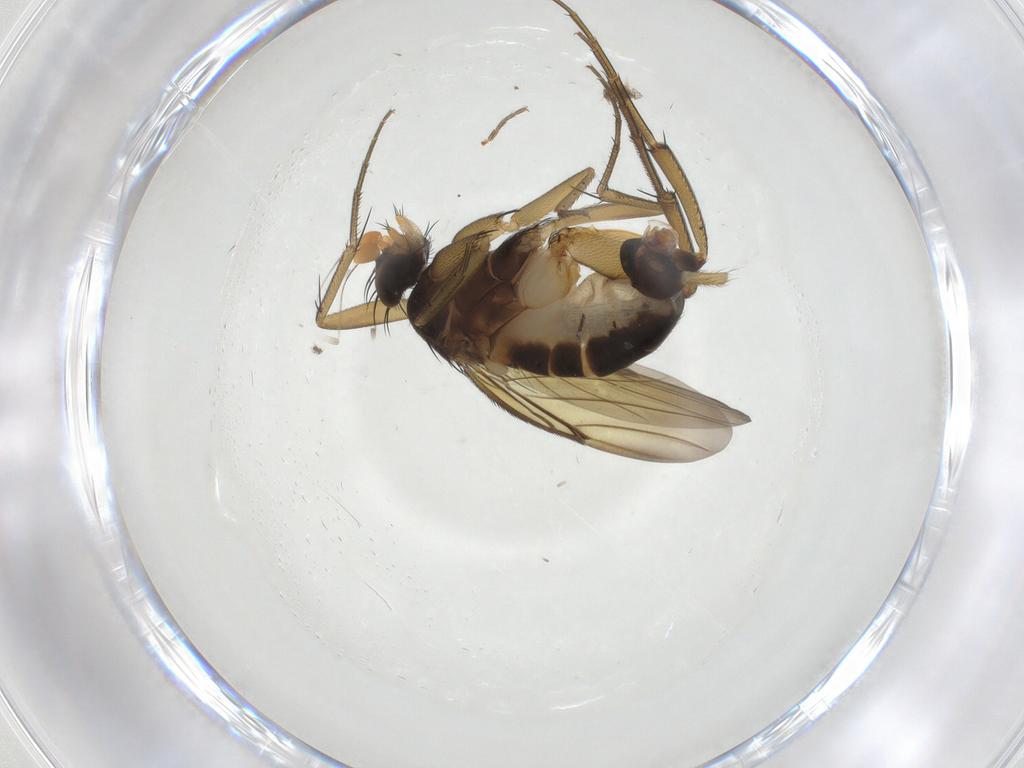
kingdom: Animalia
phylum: Arthropoda
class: Insecta
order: Diptera
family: Phoridae
